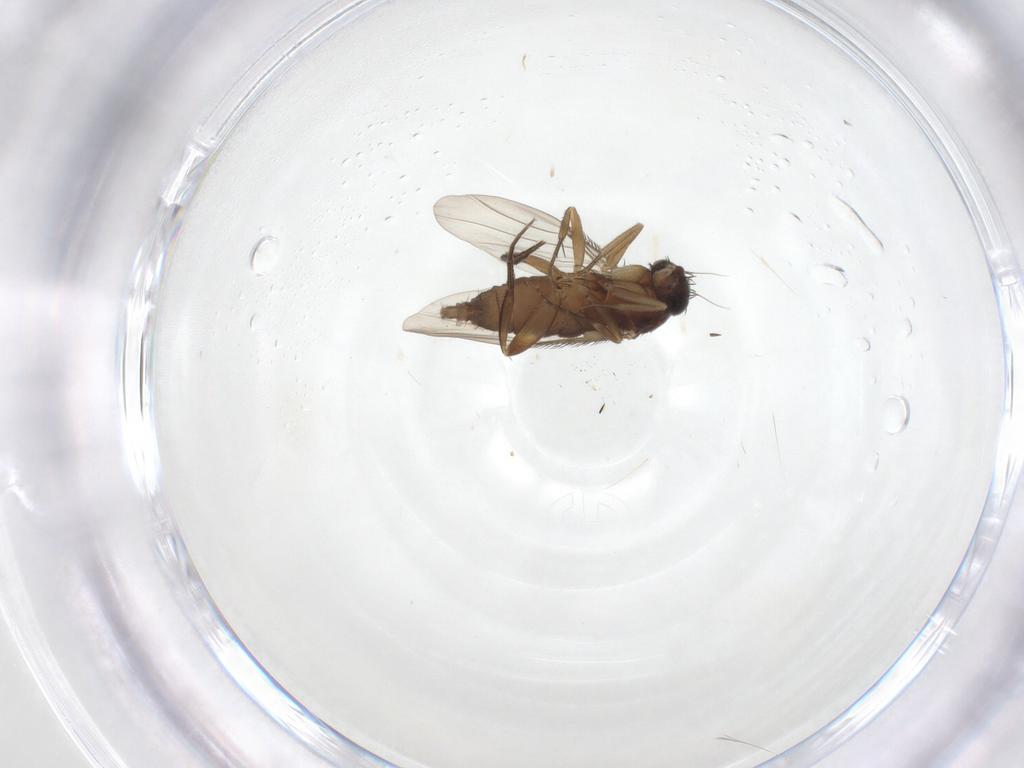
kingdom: Animalia
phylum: Arthropoda
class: Insecta
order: Diptera
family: Phoridae
